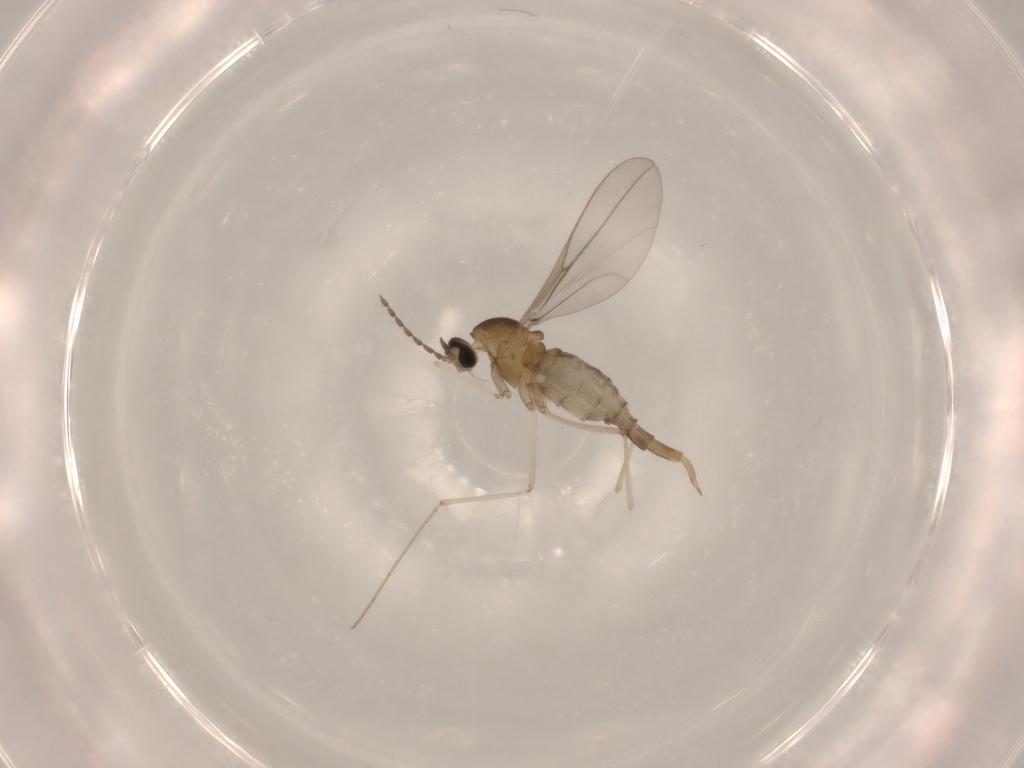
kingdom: Animalia
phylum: Arthropoda
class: Insecta
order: Diptera
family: Cecidomyiidae
